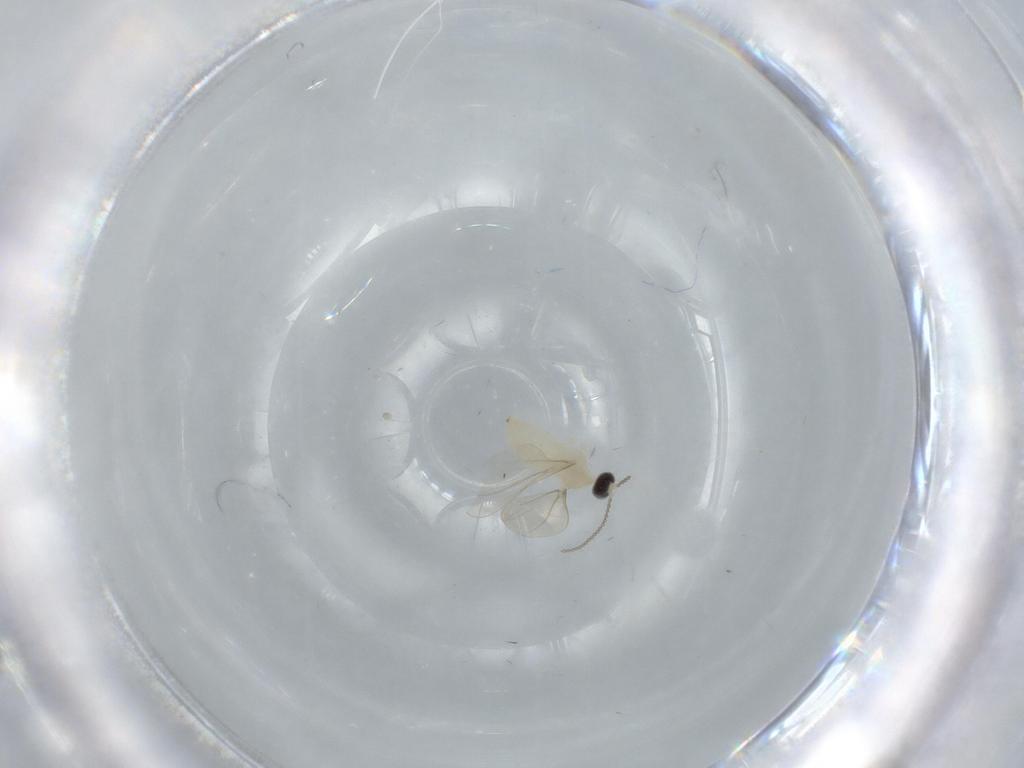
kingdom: Animalia
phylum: Arthropoda
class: Insecta
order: Diptera
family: Cecidomyiidae
